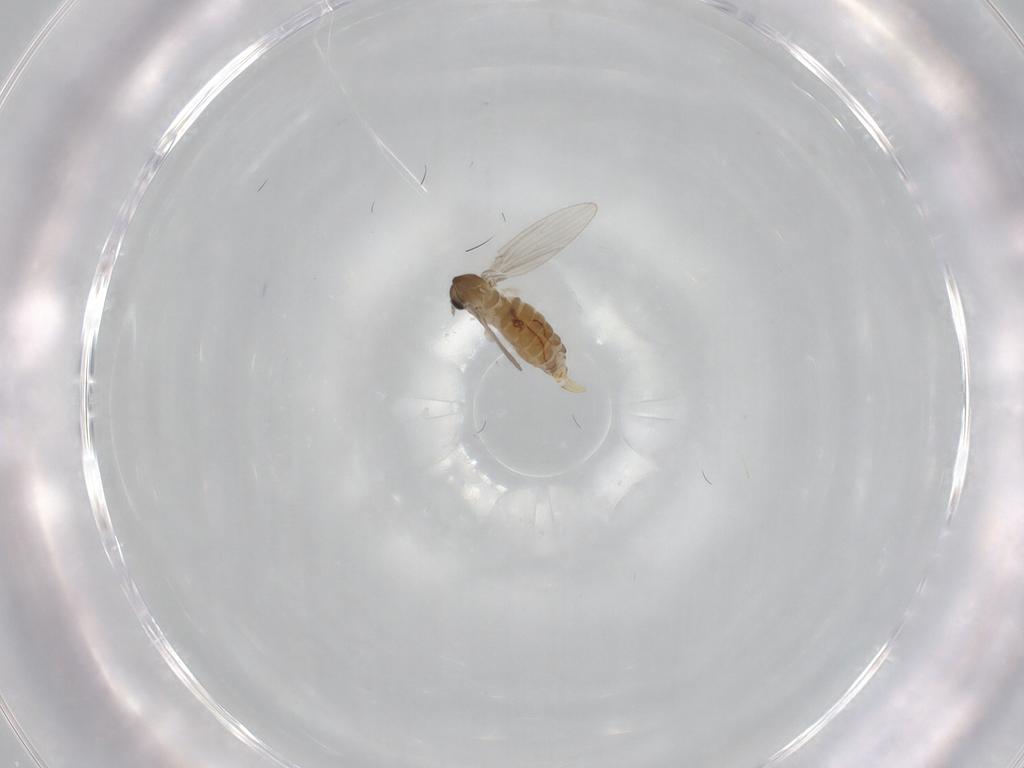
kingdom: Animalia
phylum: Arthropoda
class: Insecta
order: Diptera
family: Psychodidae
